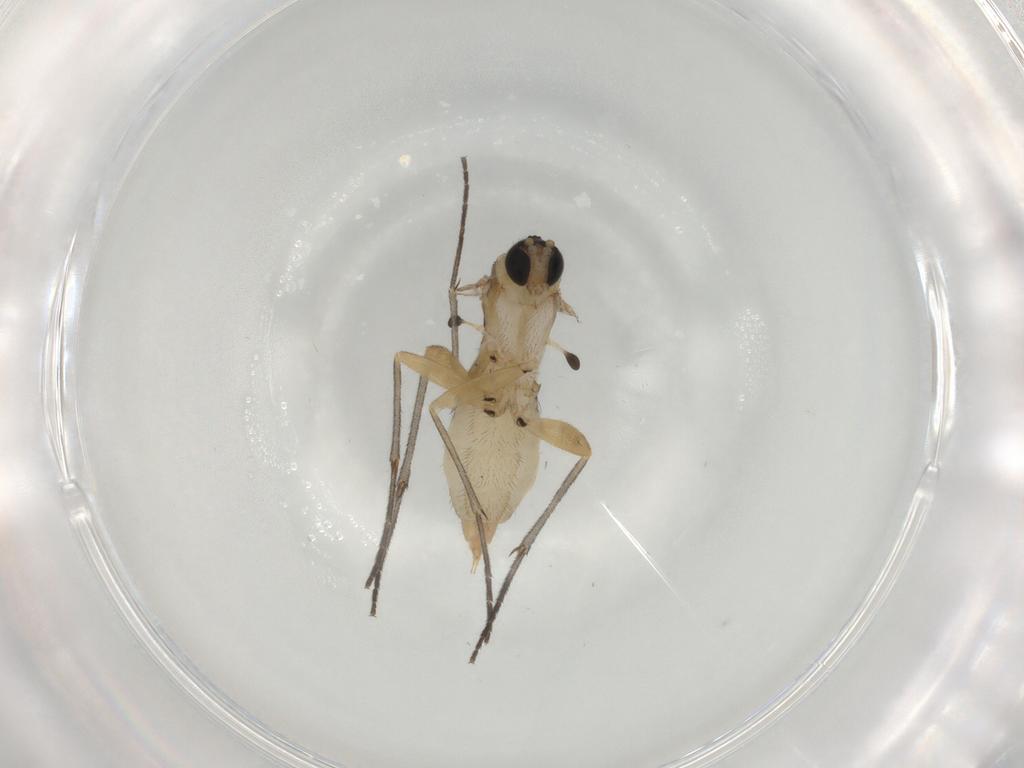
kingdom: Animalia
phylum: Arthropoda
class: Insecta
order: Diptera
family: Sciaridae
